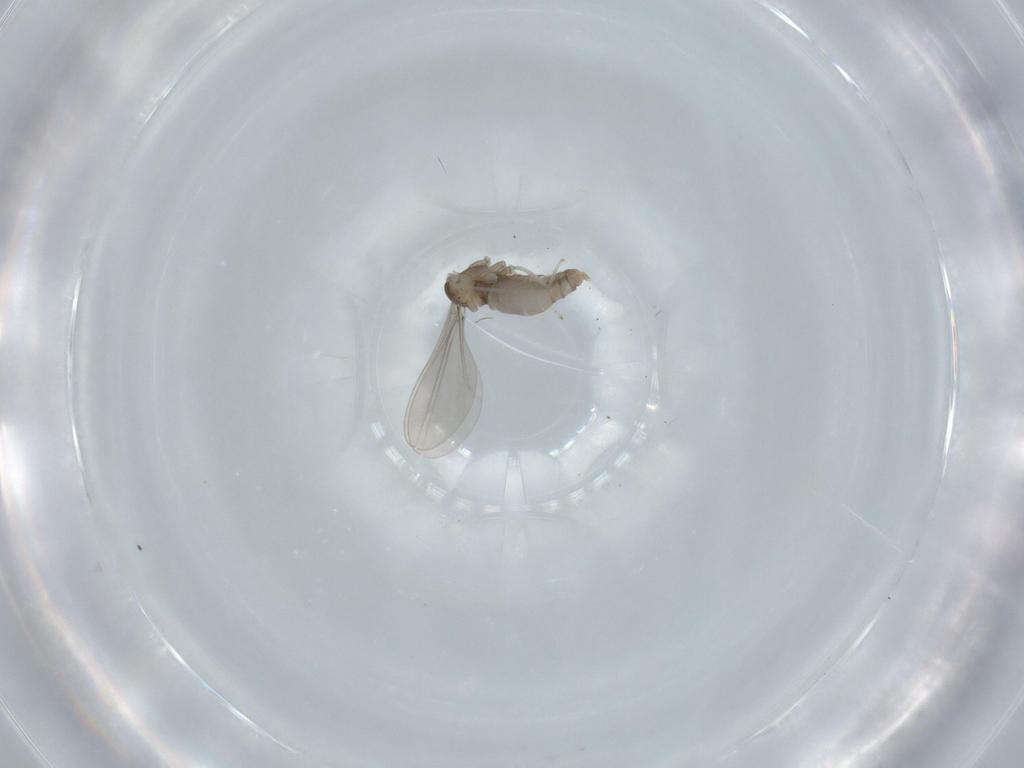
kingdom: Animalia
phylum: Arthropoda
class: Insecta
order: Diptera
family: Cecidomyiidae
